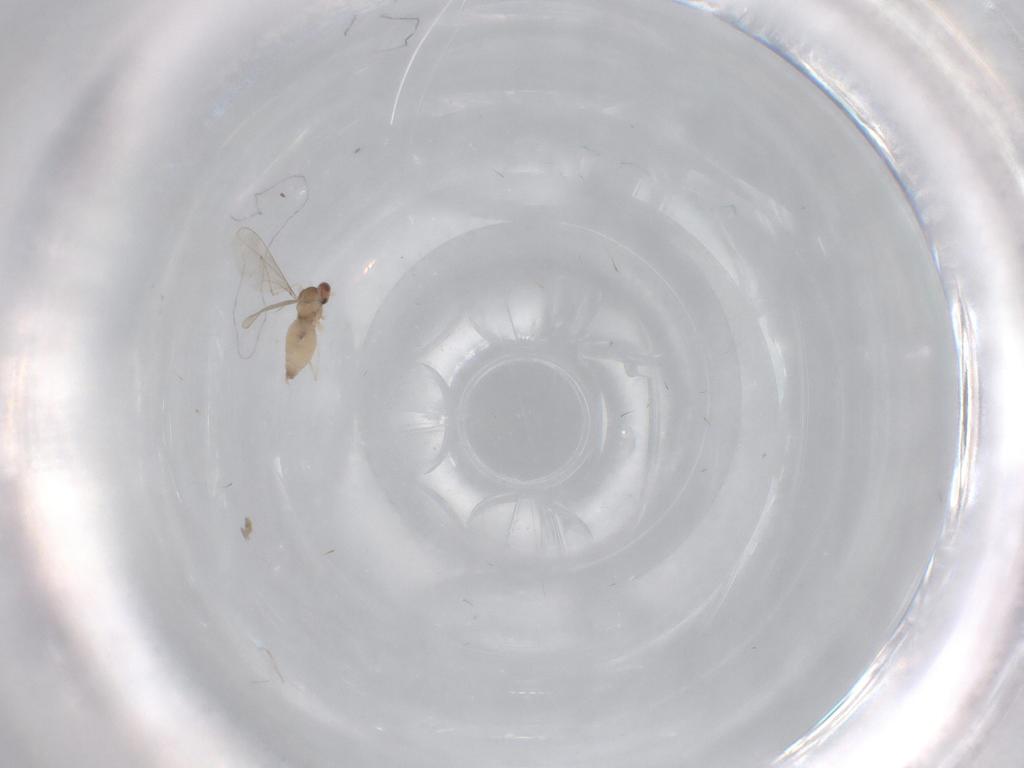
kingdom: Animalia
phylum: Arthropoda
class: Insecta
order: Diptera
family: Cecidomyiidae
